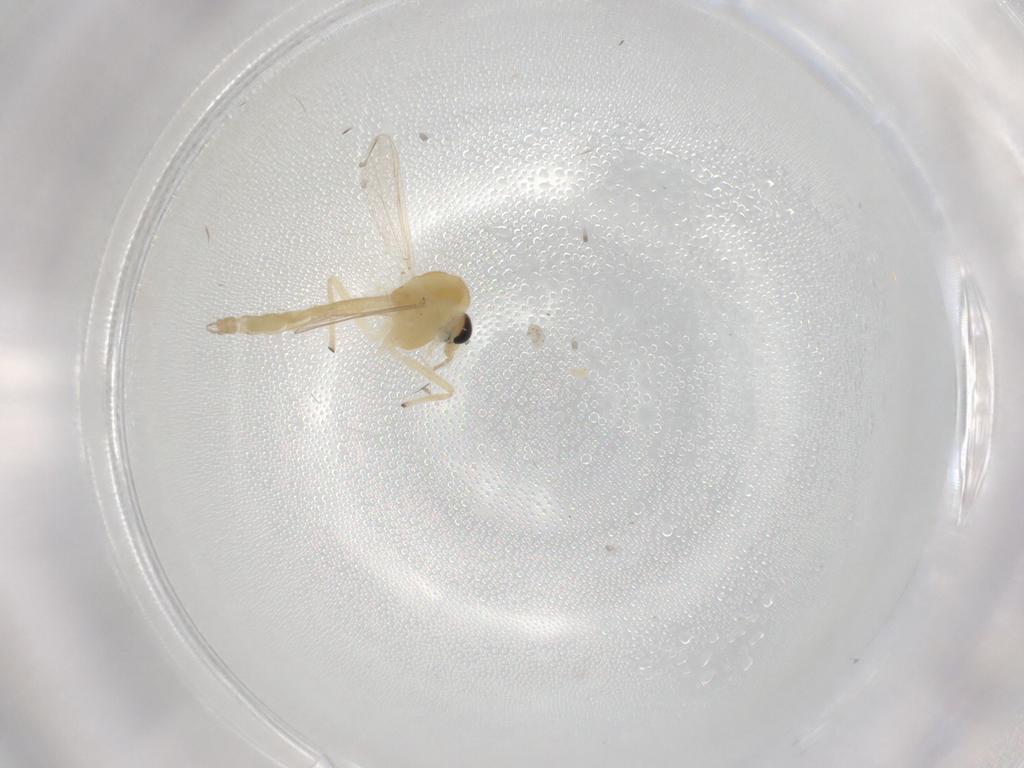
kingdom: Animalia
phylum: Arthropoda
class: Insecta
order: Diptera
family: Chironomidae
